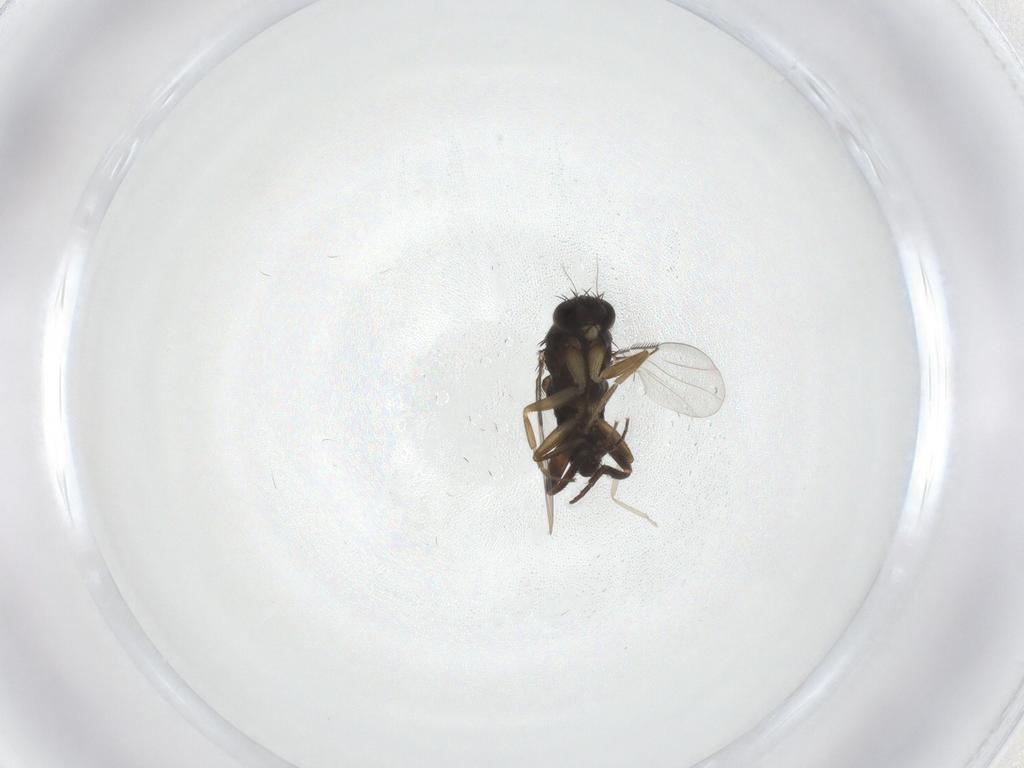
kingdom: Animalia
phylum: Arthropoda
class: Insecta
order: Diptera
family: Phoridae
